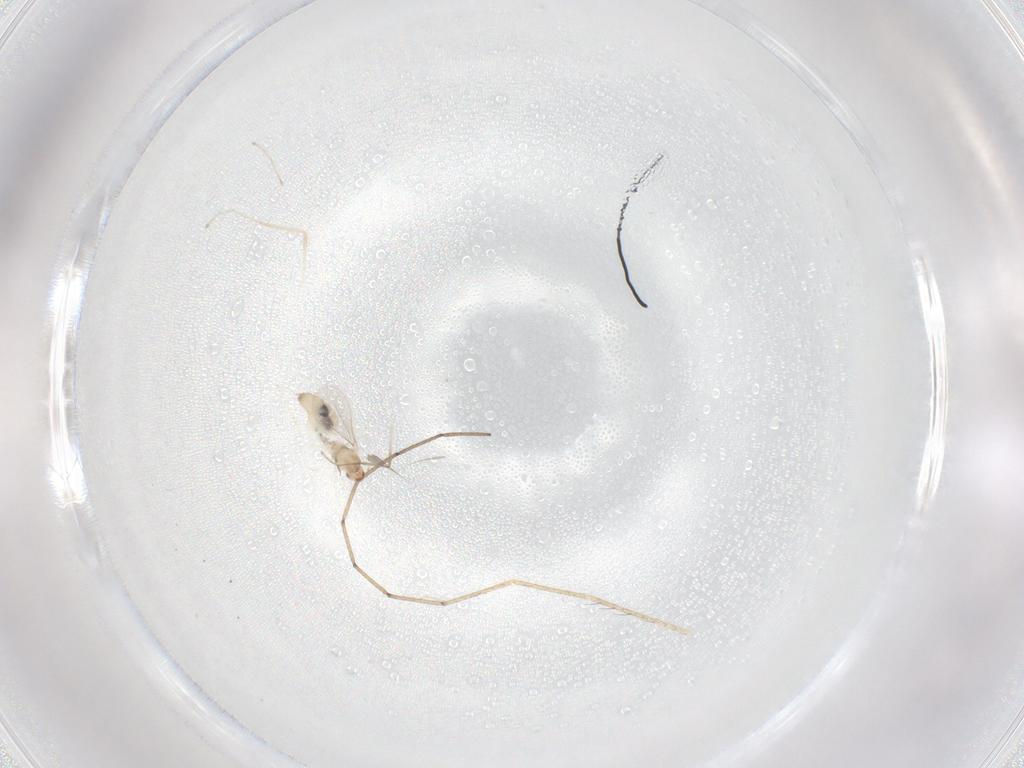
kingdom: Animalia
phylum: Arthropoda
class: Insecta
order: Diptera
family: Limoniidae
